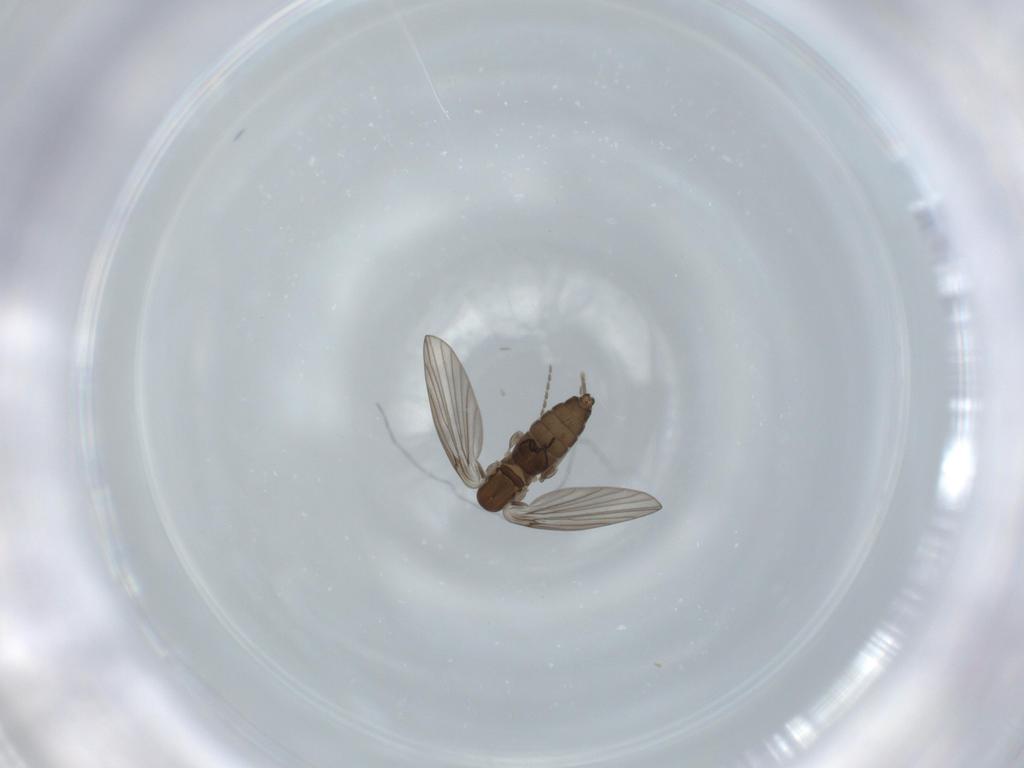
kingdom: Animalia
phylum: Arthropoda
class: Insecta
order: Diptera
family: Psychodidae
